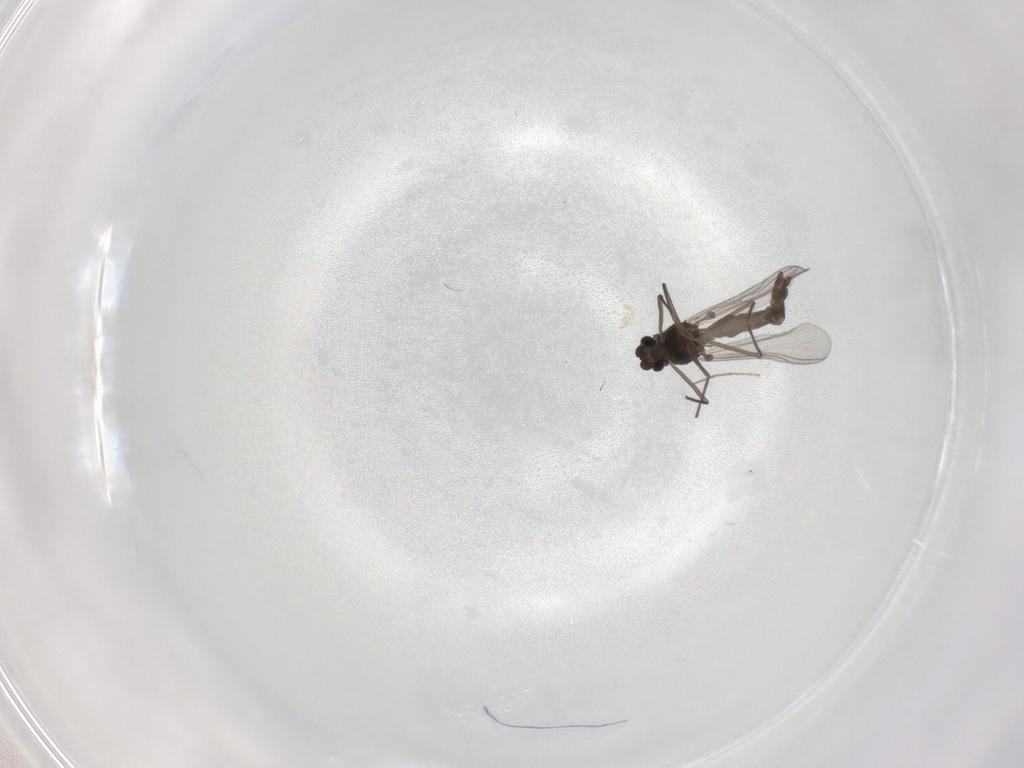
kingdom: Animalia
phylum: Arthropoda
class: Insecta
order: Diptera
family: Chironomidae
